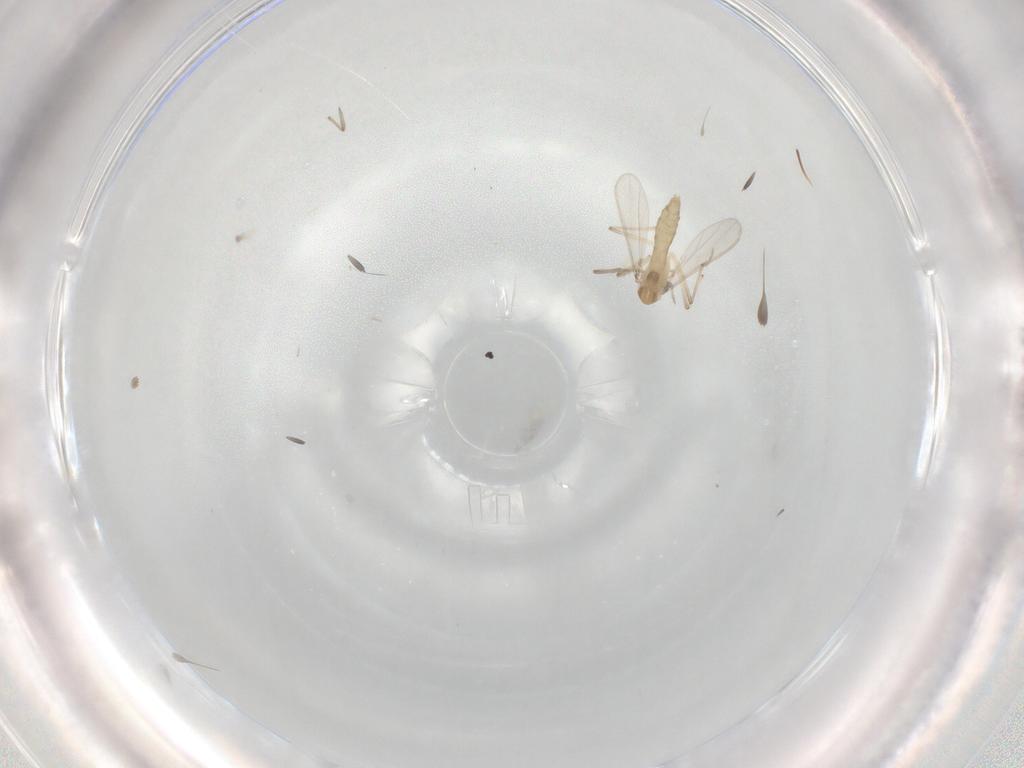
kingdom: Animalia
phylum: Arthropoda
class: Insecta
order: Diptera
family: Chironomidae
